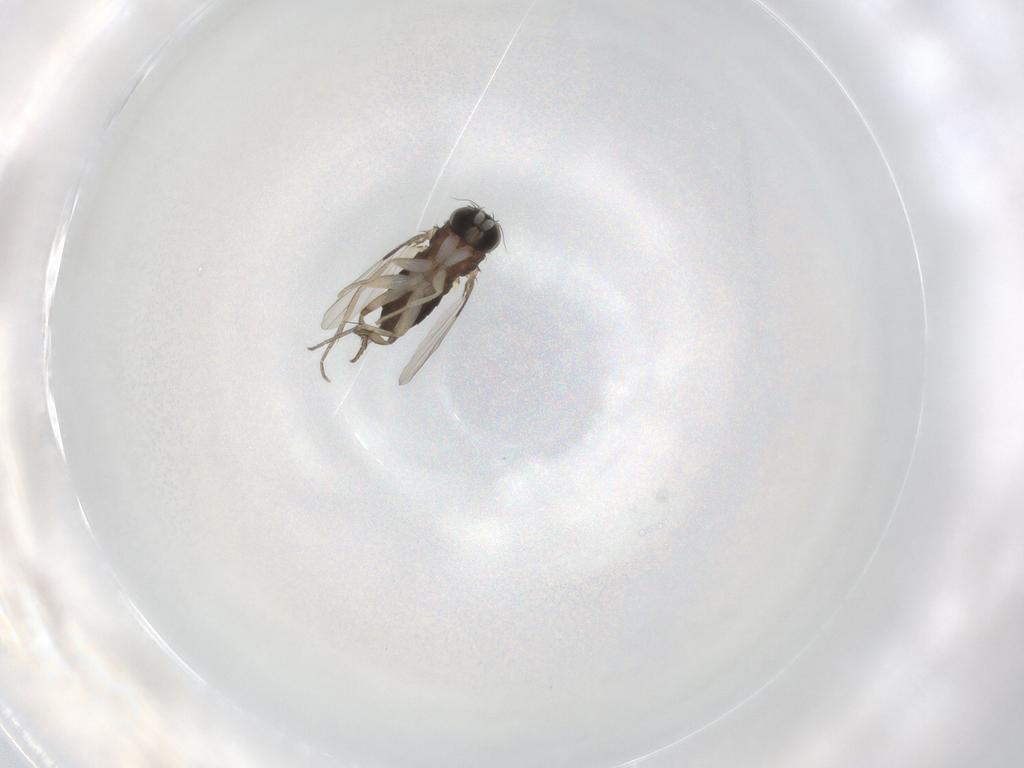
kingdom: Animalia
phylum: Arthropoda
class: Insecta
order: Diptera
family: Phoridae
